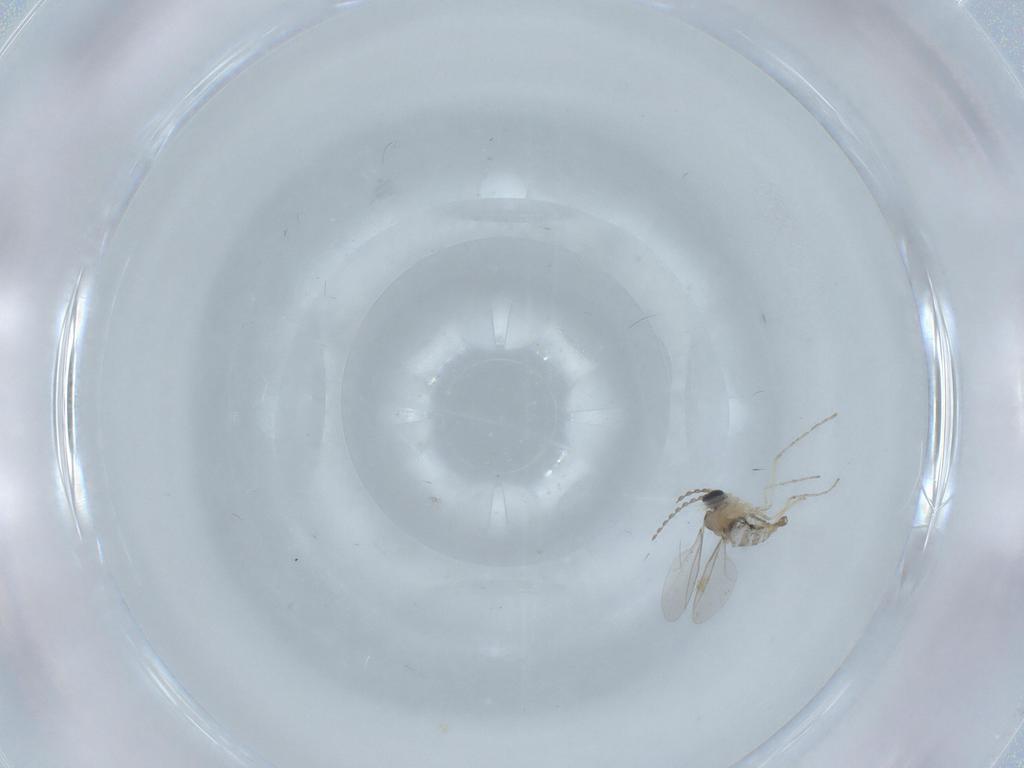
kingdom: Animalia
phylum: Arthropoda
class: Insecta
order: Diptera
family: Cecidomyiidae
